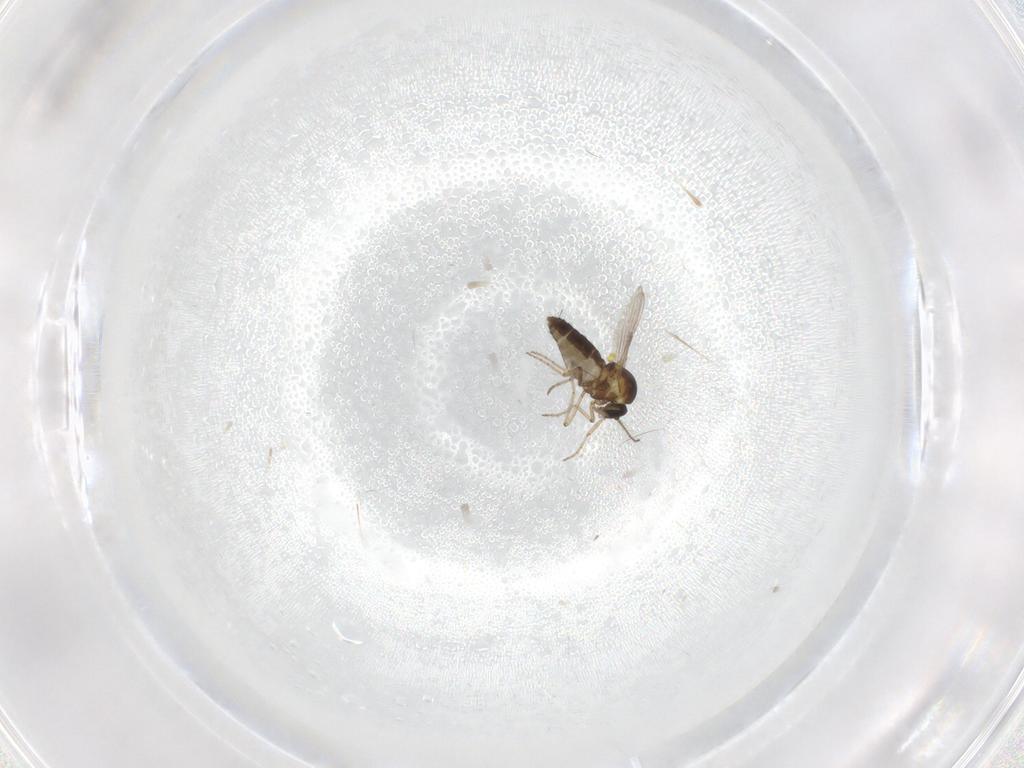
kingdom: Animalia
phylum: Arthropoda
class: Insecta
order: Diptera
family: Ceratopogonidae
